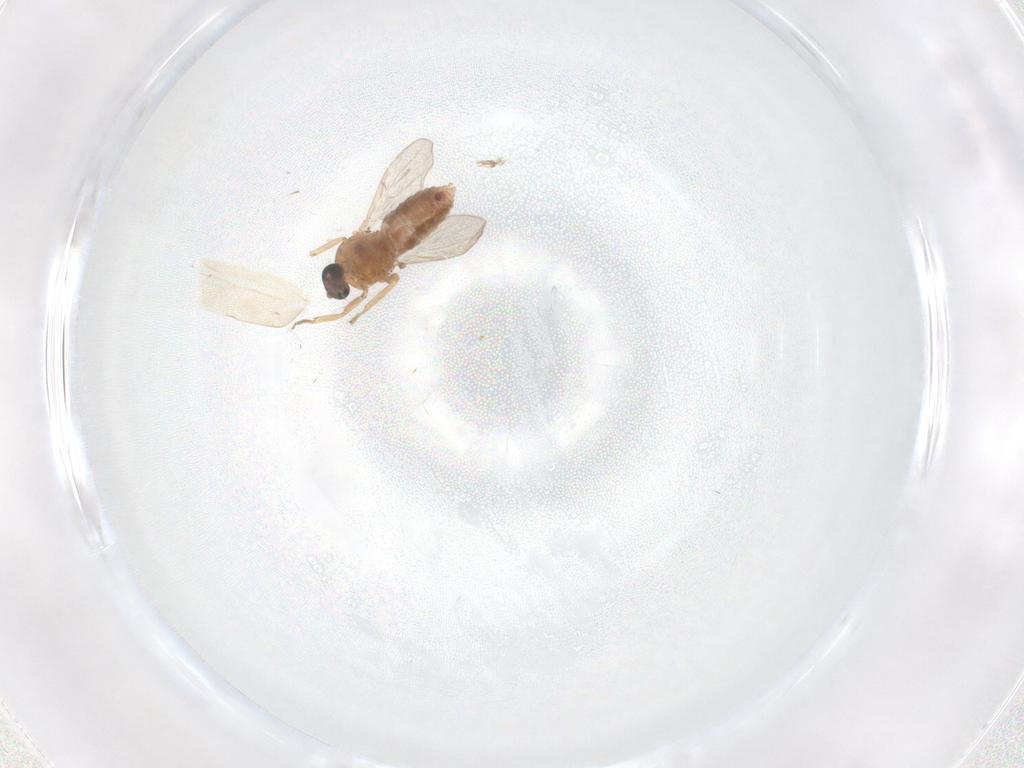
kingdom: Animalia
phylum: Arthropoda
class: Insecta
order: Diptera
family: Chironomidae
